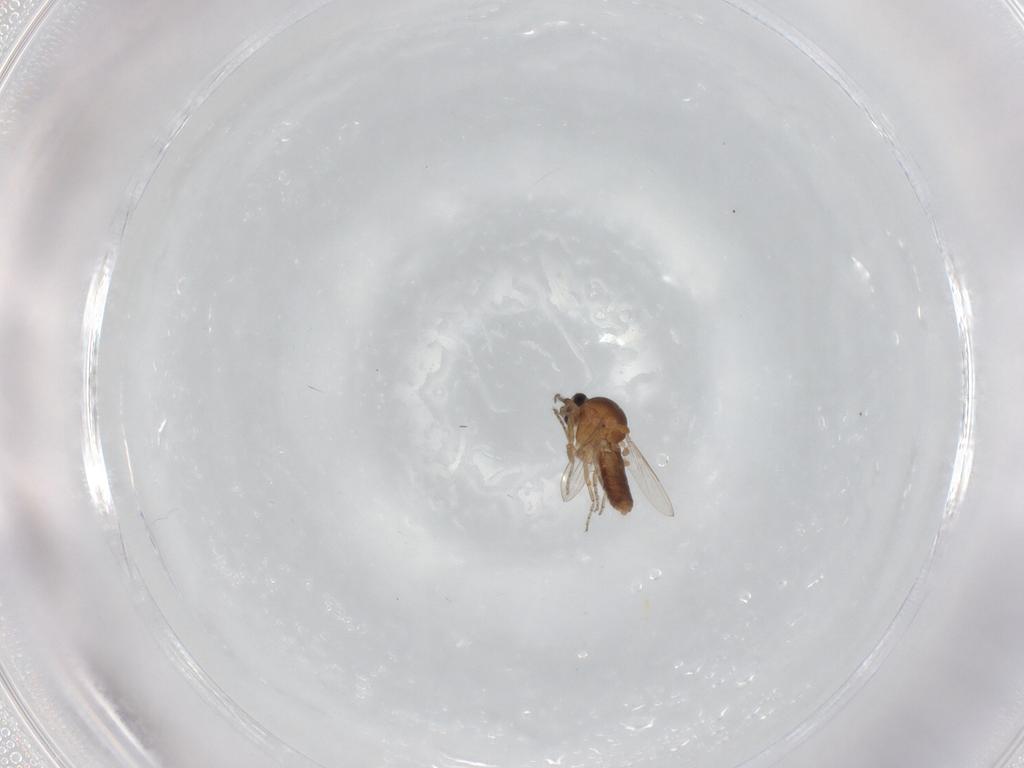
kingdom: Animalia
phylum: Arthropoda
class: Insecta
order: Diptera
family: Ceratopogonidae
